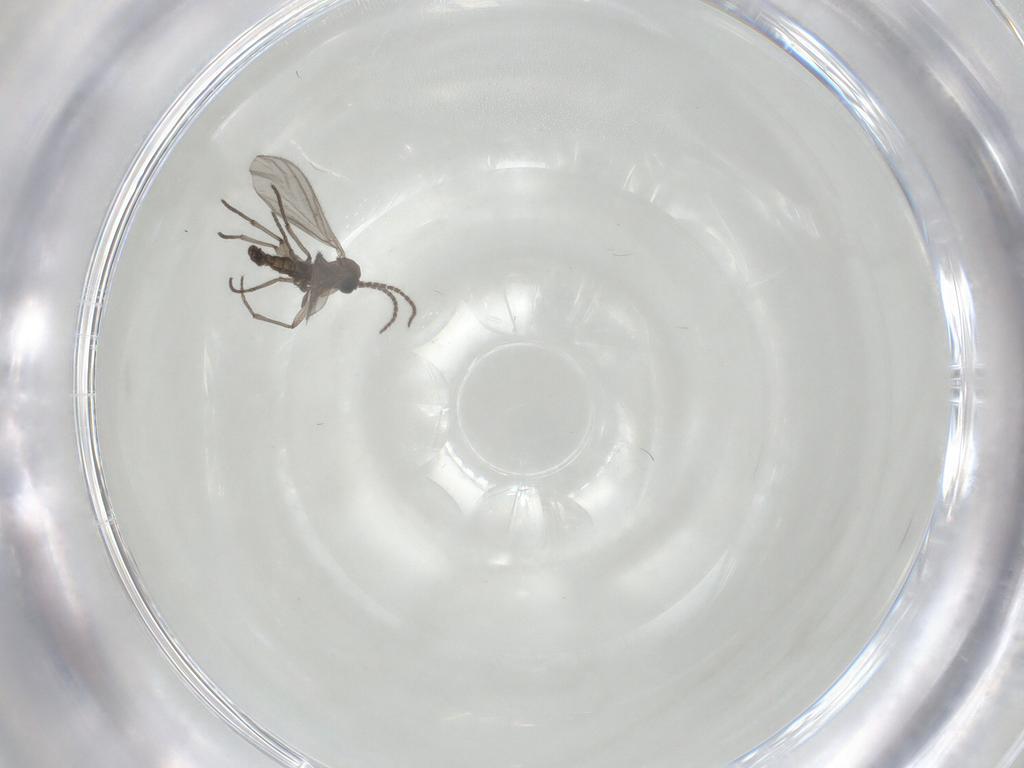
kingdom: Animalia
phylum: Arthropoda
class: Insecta
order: Diptera
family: Sciaridae
